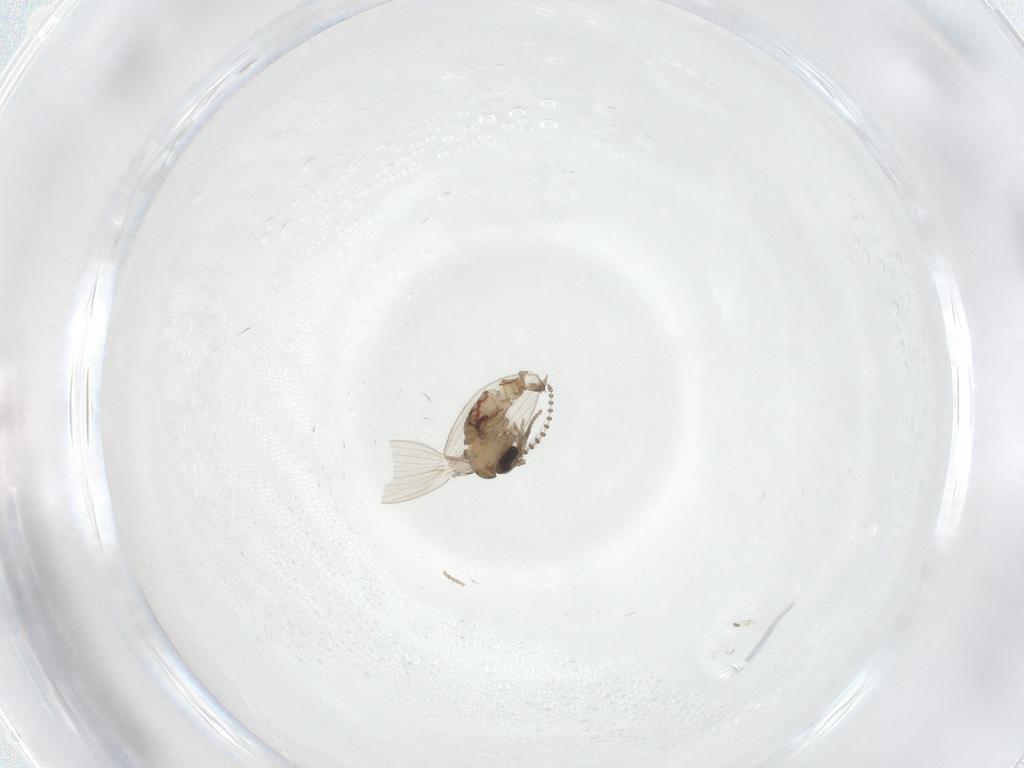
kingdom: Animalia
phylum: Arthropoda
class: Insecta
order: Diptera
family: Psychodidae
